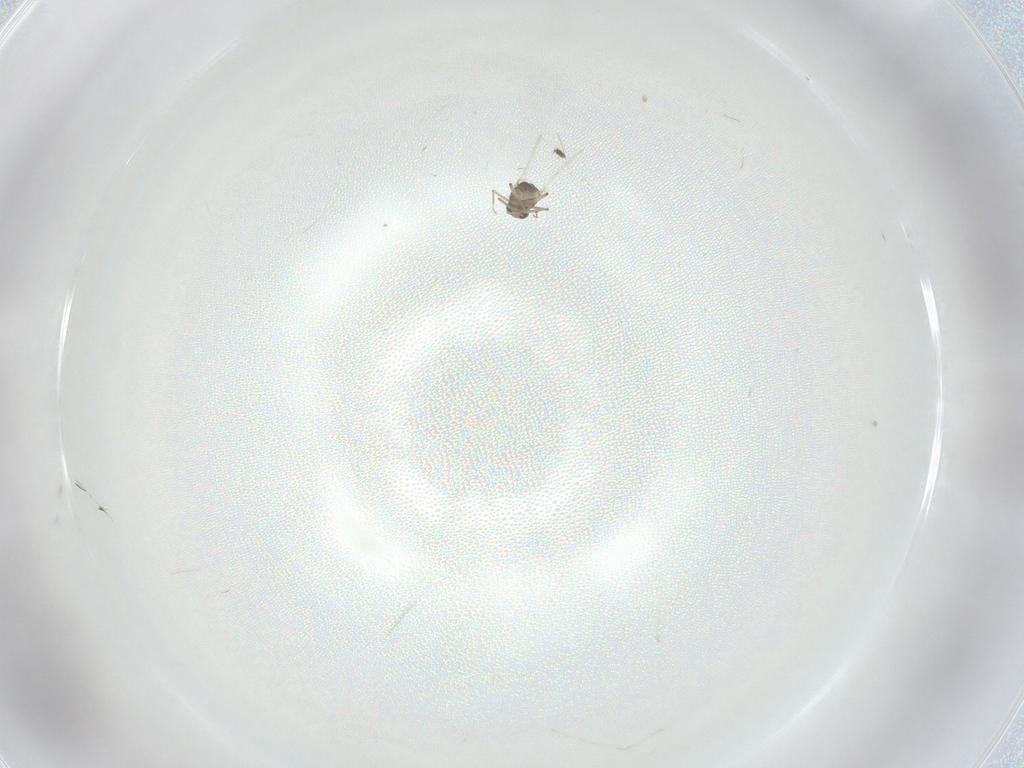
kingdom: Animalia
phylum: Arthropoda
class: Insecta
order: Diptera
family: Ceratopogonidae
